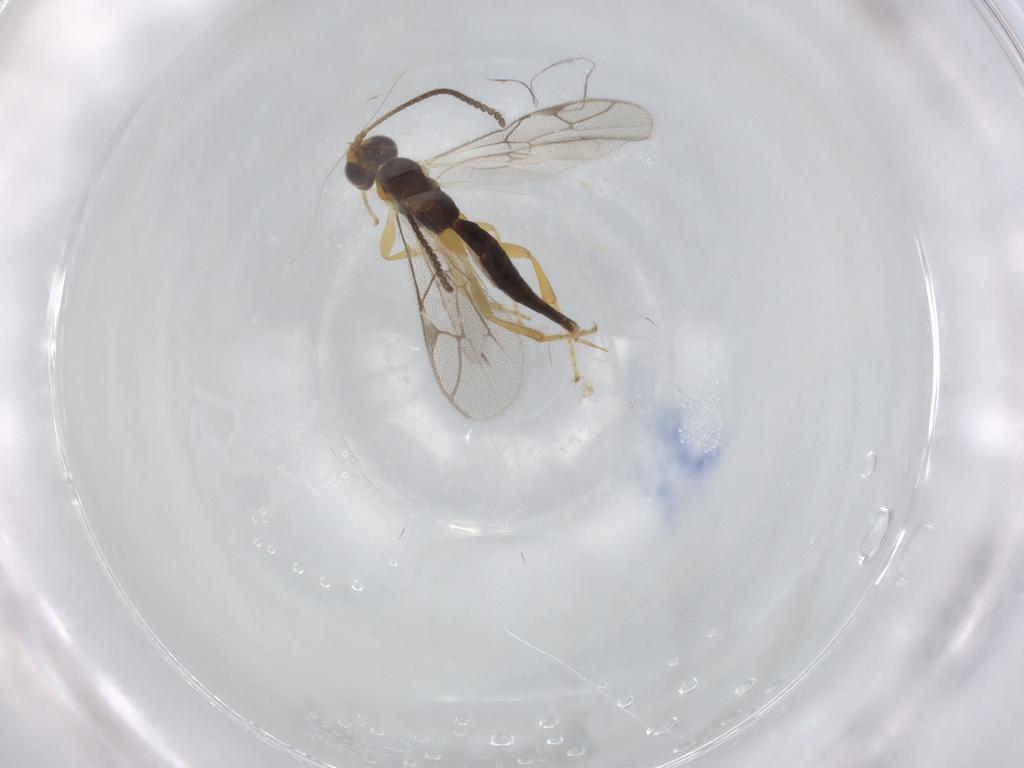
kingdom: Animalia
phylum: Arthropoda
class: Insecta
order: Hymenoptera
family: Ichneumonidae
